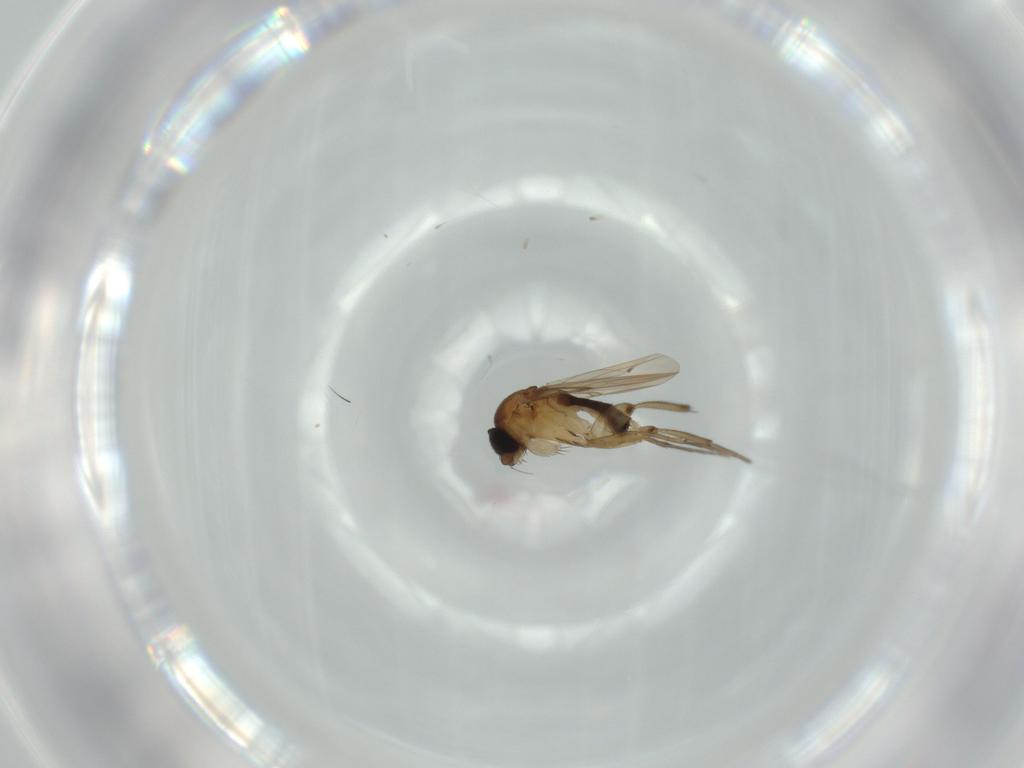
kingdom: Animalia
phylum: Arthropoda
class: Insecta
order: Diptera
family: Phoridae
